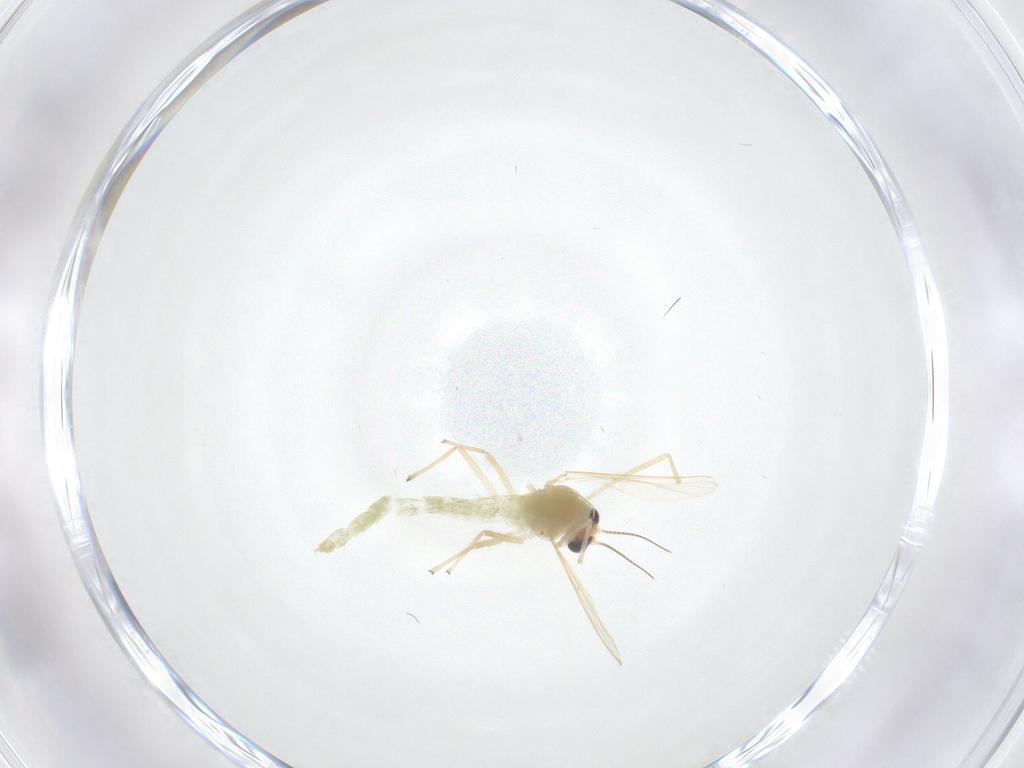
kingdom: Animalia
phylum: Arthropoda
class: Insecta
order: Diptera
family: Chironomidae
